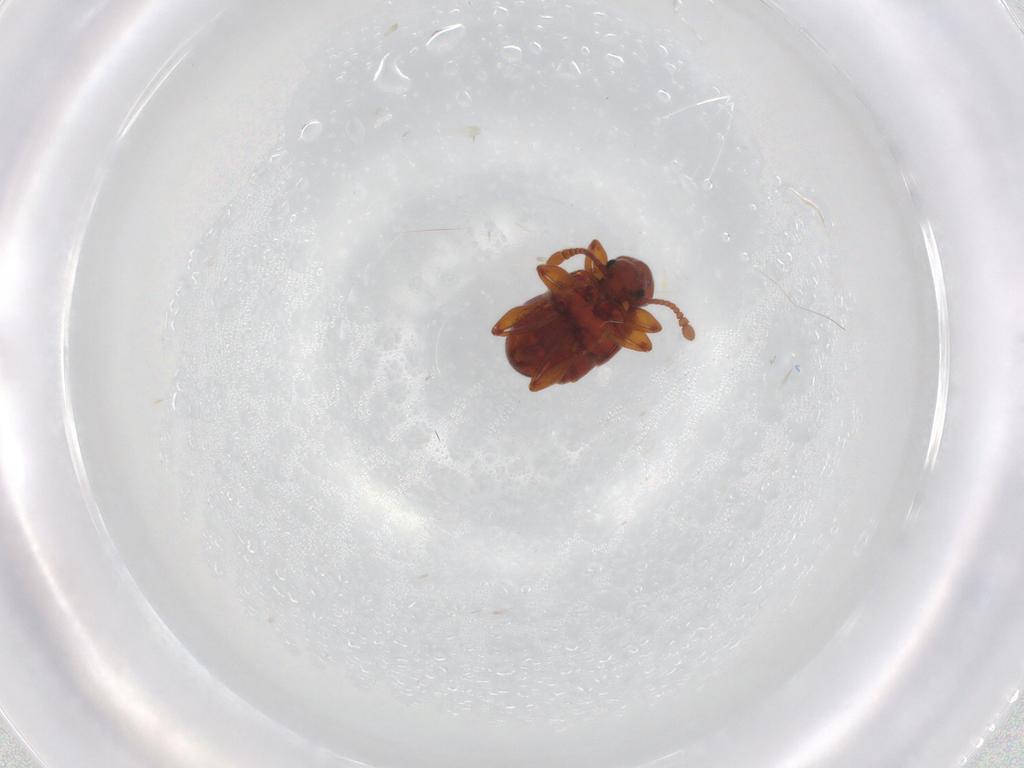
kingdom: Animalia
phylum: Arthropoda
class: Insecta
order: Coleoptera
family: Staphylinidae
